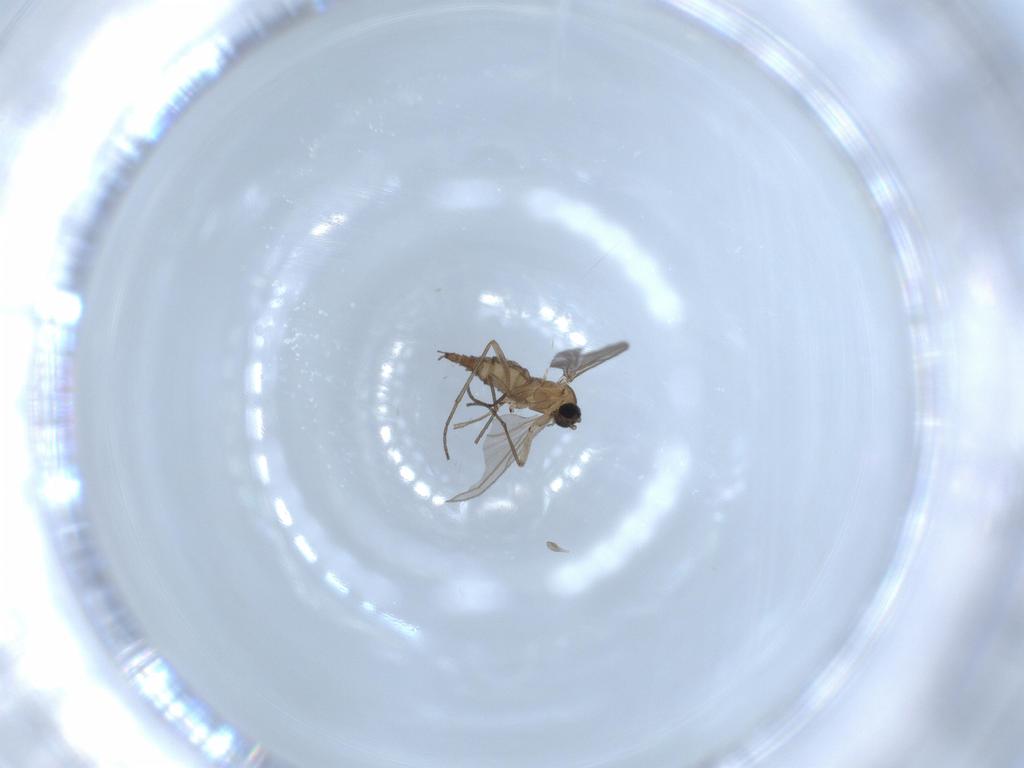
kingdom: Animalia
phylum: Arthropoda
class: Insecta
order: Diptera
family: Sciaridae
